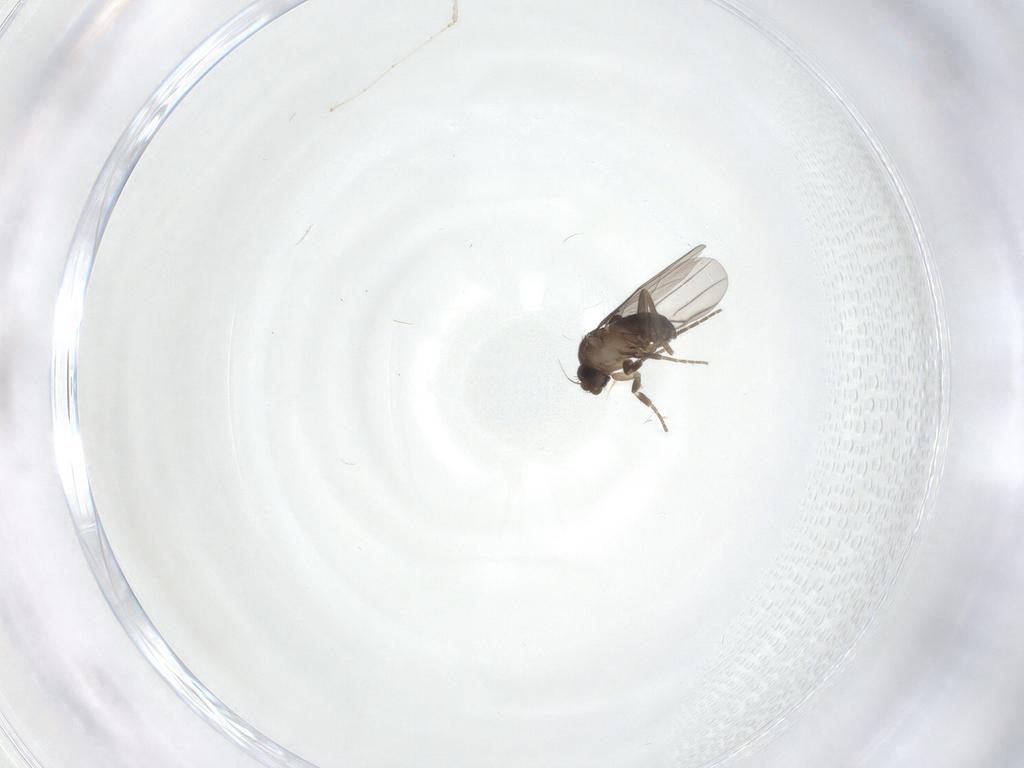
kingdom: Animalia
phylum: Arthropoda
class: Insecta
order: Diptera
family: Phoridae
